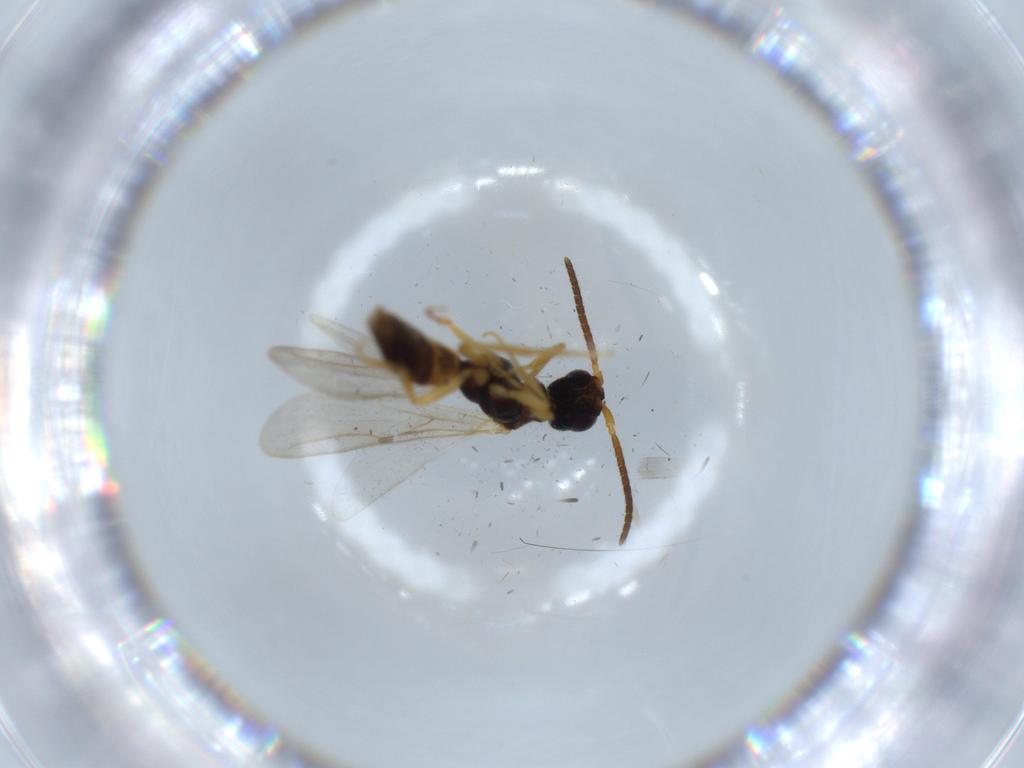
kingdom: Animalia
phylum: Arthropoda
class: Insecta
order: Hymenoptera
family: Bethylidae
